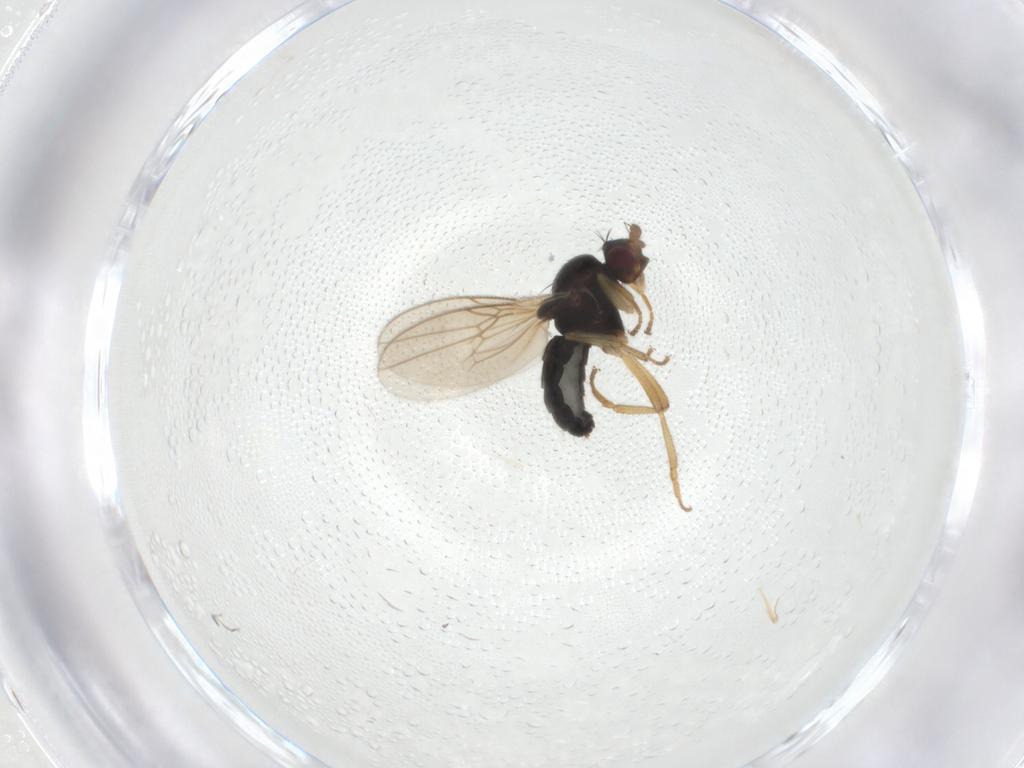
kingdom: Animalia
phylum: Arthropoda
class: Insecta
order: Diptera
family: Sphaeroceridae
